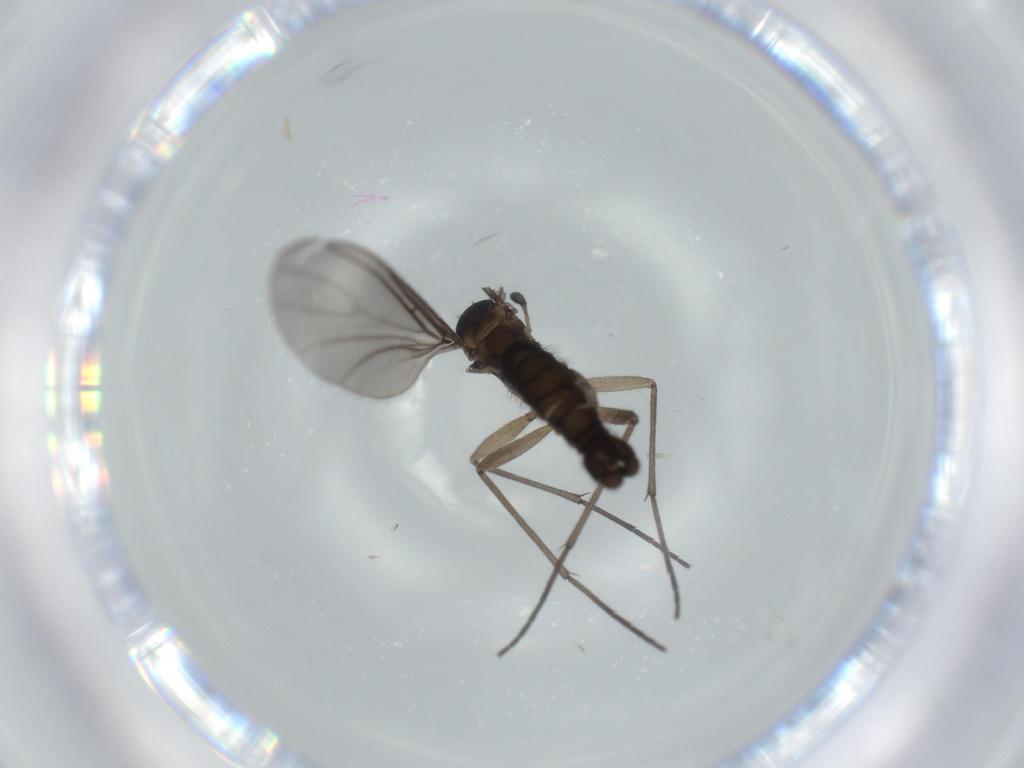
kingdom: Animalia
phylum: Arthropoda
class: Insecta
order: Diptera
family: Sciaridae
